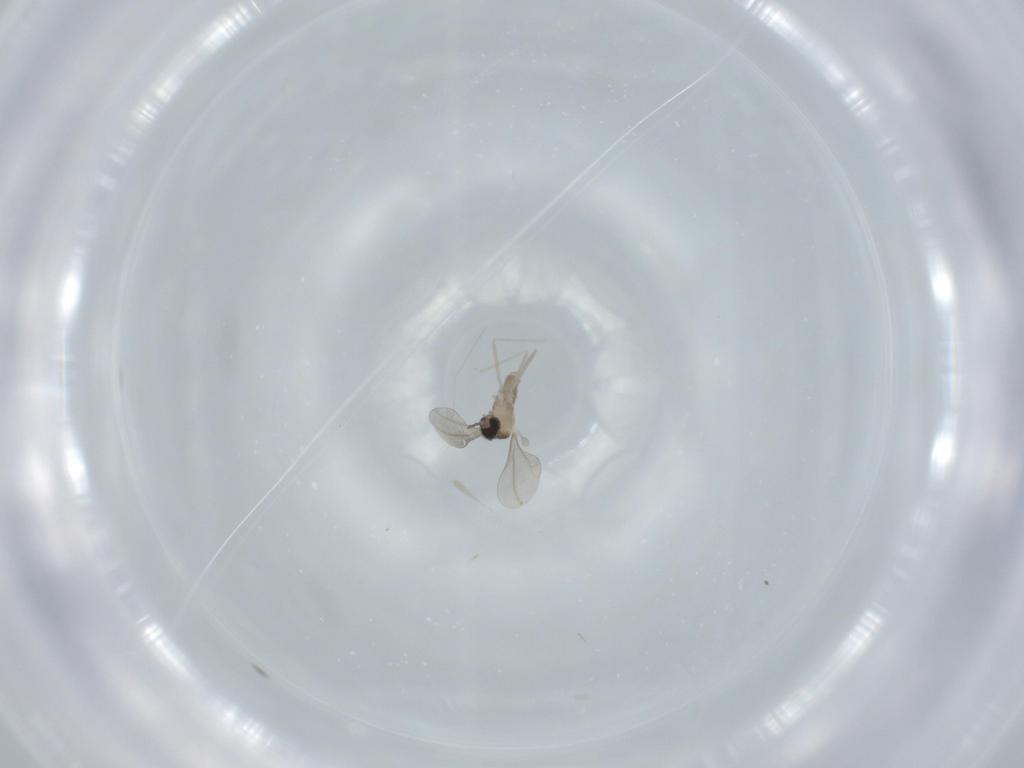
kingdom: Animalia
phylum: Arthropoda
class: Insecta
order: Diptera
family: Cecidomyiidae
